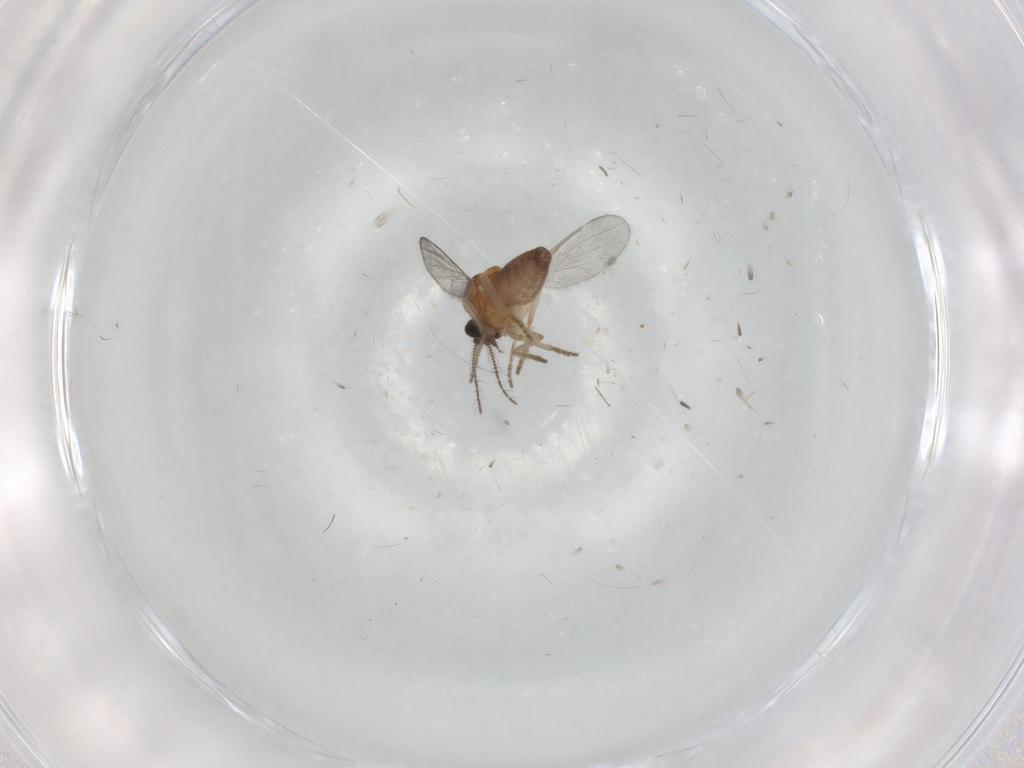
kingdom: Animalia
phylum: Arthropoda
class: Insecta
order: Diptera
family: Ceratopogonidae
